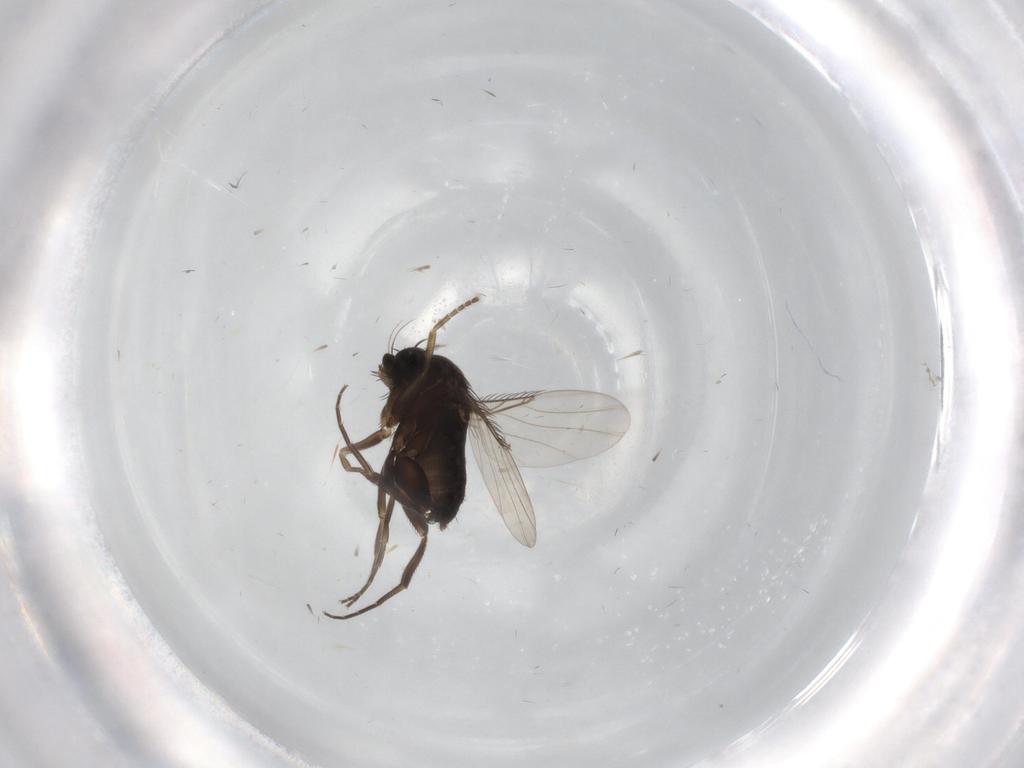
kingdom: Animalia
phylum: Arthropoda
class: Insecta
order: Diptera
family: Phoridae
